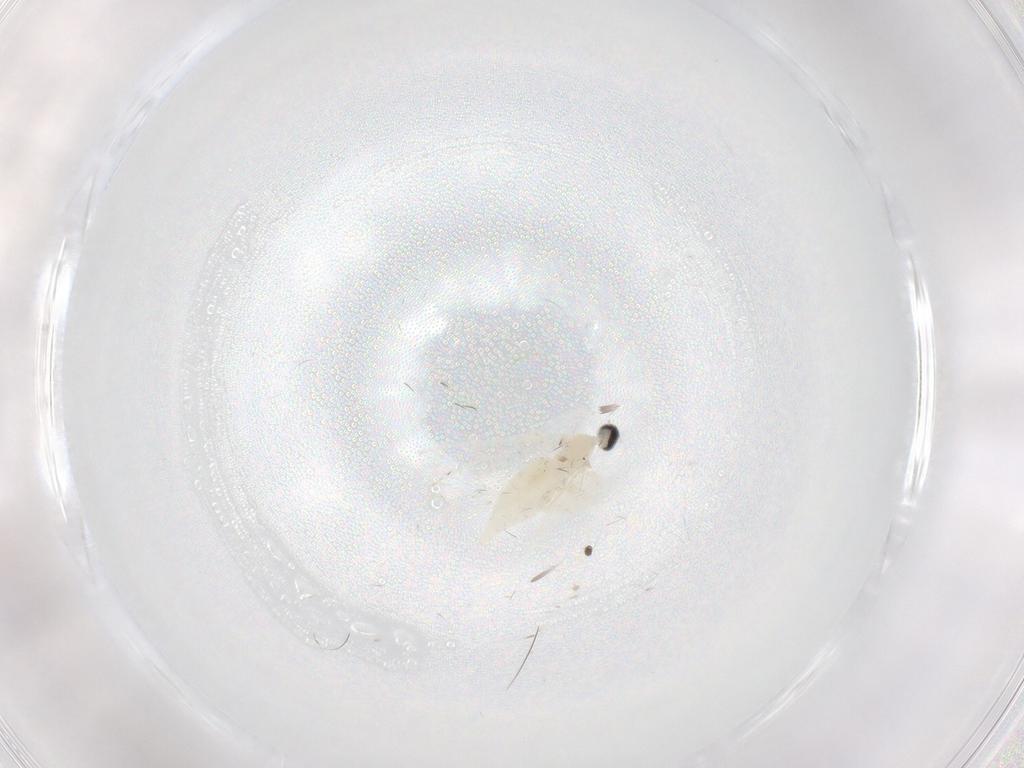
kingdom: Animalia
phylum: Arthropoda
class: Insecta
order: Diptera
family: Cecidomyiidae
